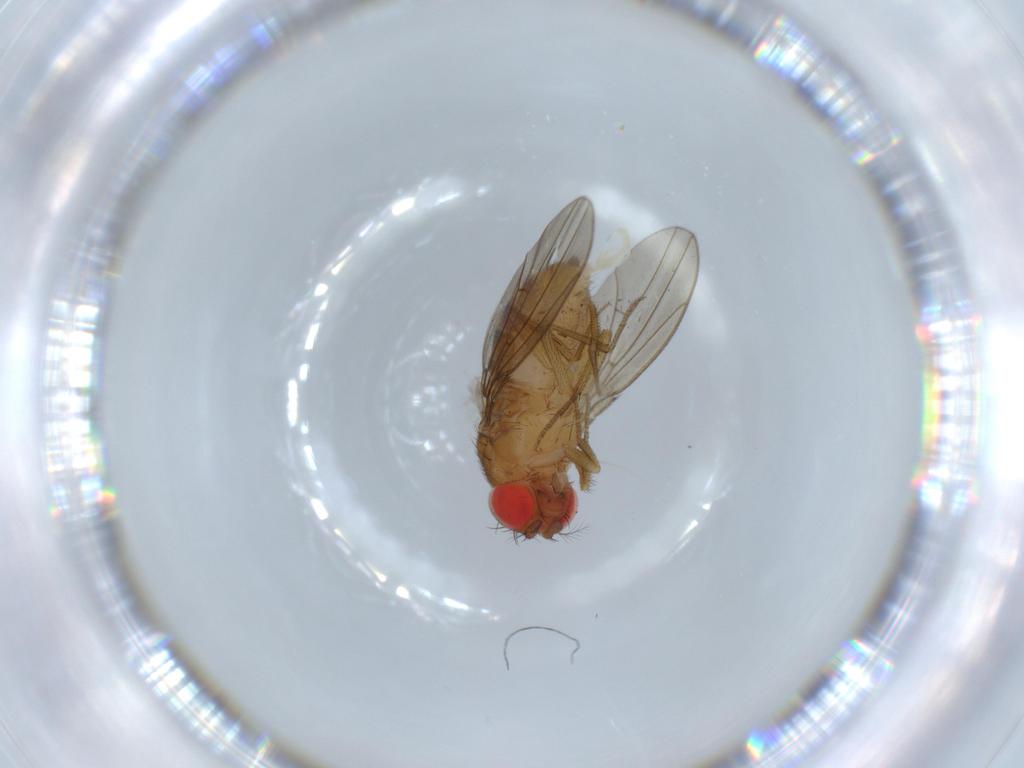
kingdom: Animalia
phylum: Arthropoda
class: Insecta
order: Diptera
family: Drosophilidae
